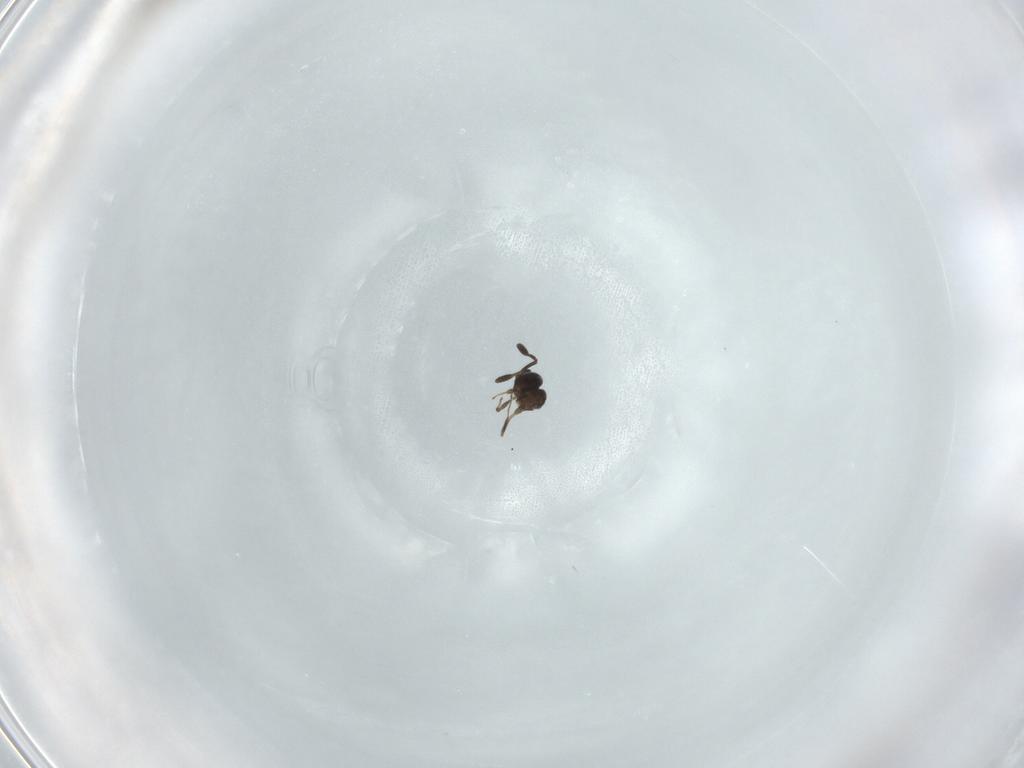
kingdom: Animalia
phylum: Arthropoda
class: Insecta
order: Hymenoptera
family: Scelionidae
